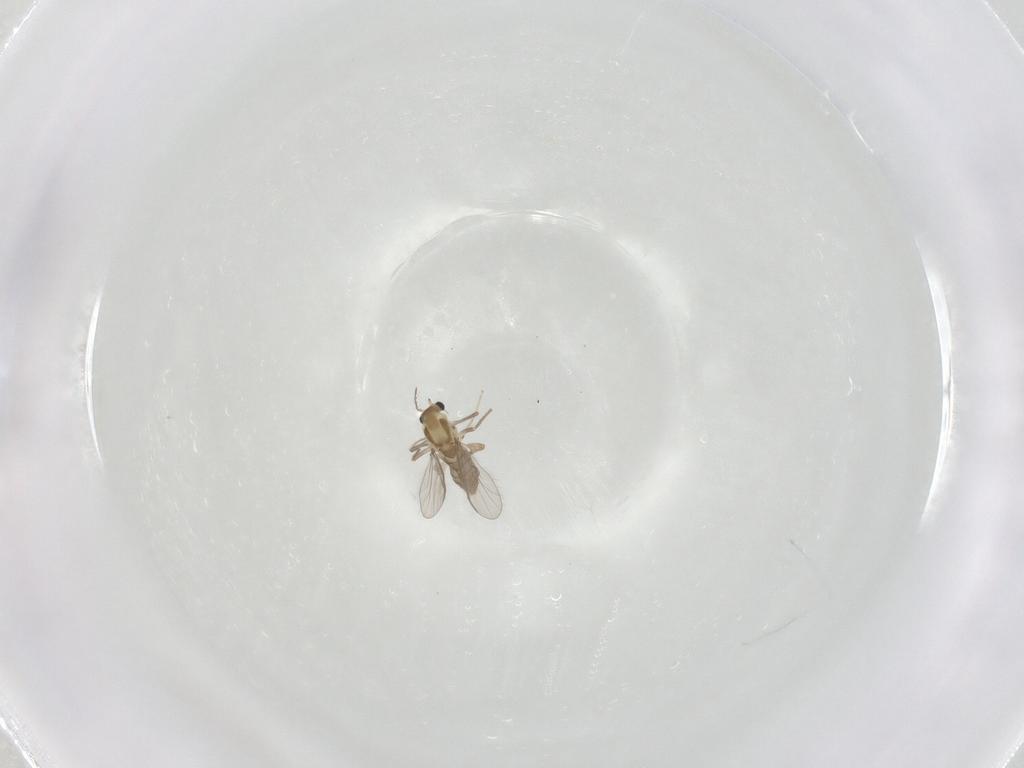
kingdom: Animalia
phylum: Arthropoda
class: Insecta
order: Diptera
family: Chironomidae
